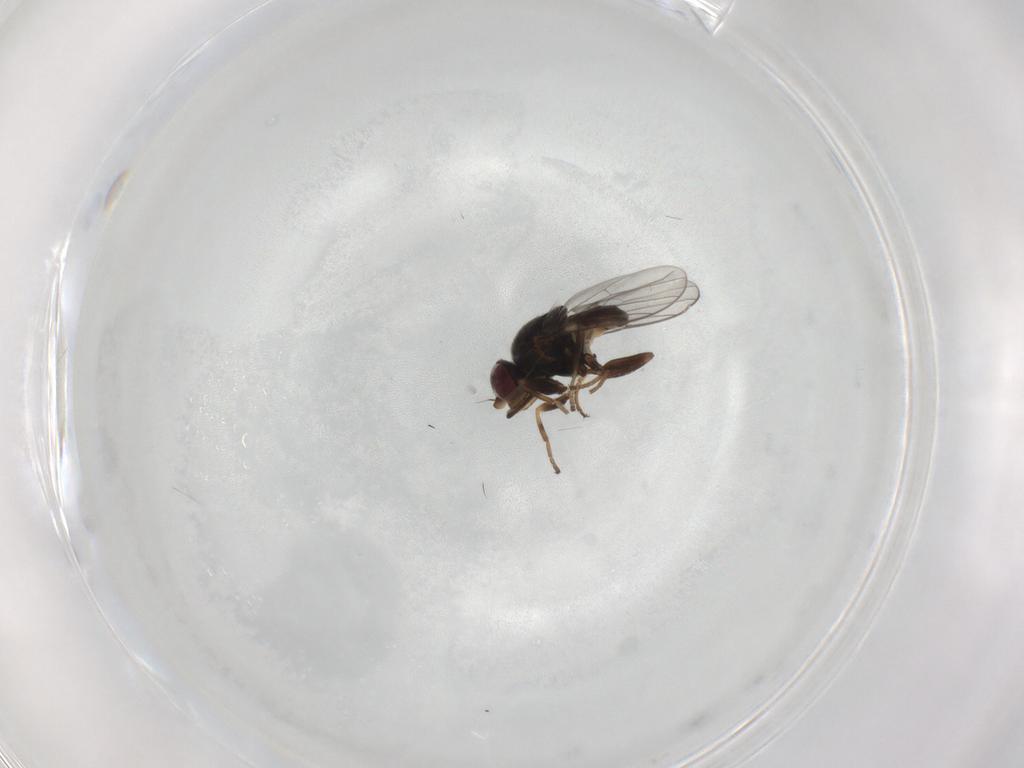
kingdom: Animalia
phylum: Arthropoda
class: Insecta
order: Diptera
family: Chloropidae
